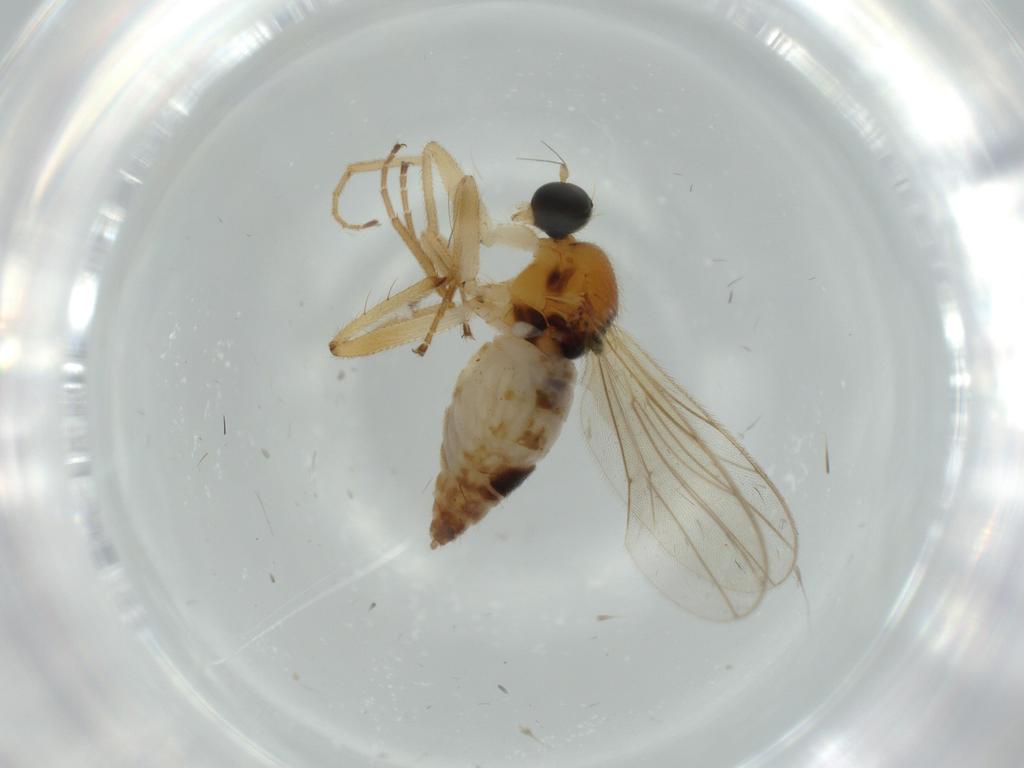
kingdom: Animalia
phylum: Arthropoda
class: Insecta
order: Diptera
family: Hybotidae
